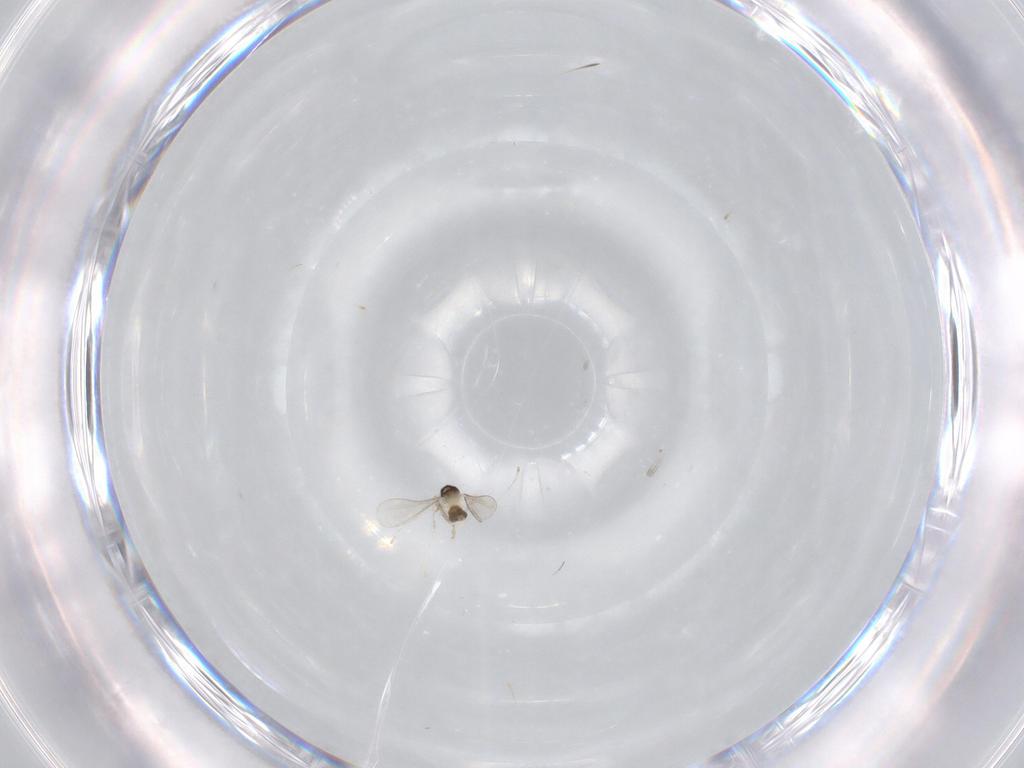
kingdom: Animalia
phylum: Arthropoda
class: Insecta
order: Diptera
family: Cecidomyiidae
